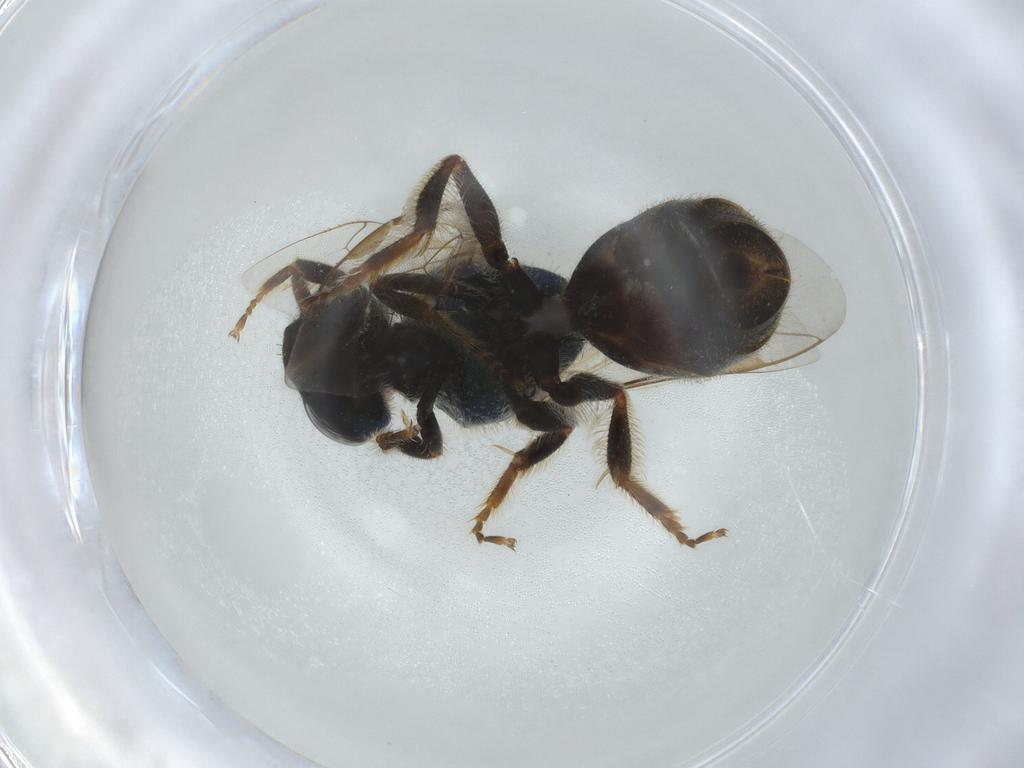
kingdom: Animalia
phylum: Arthropoda
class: Insecta
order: Hymenoptera
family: Halictidae
